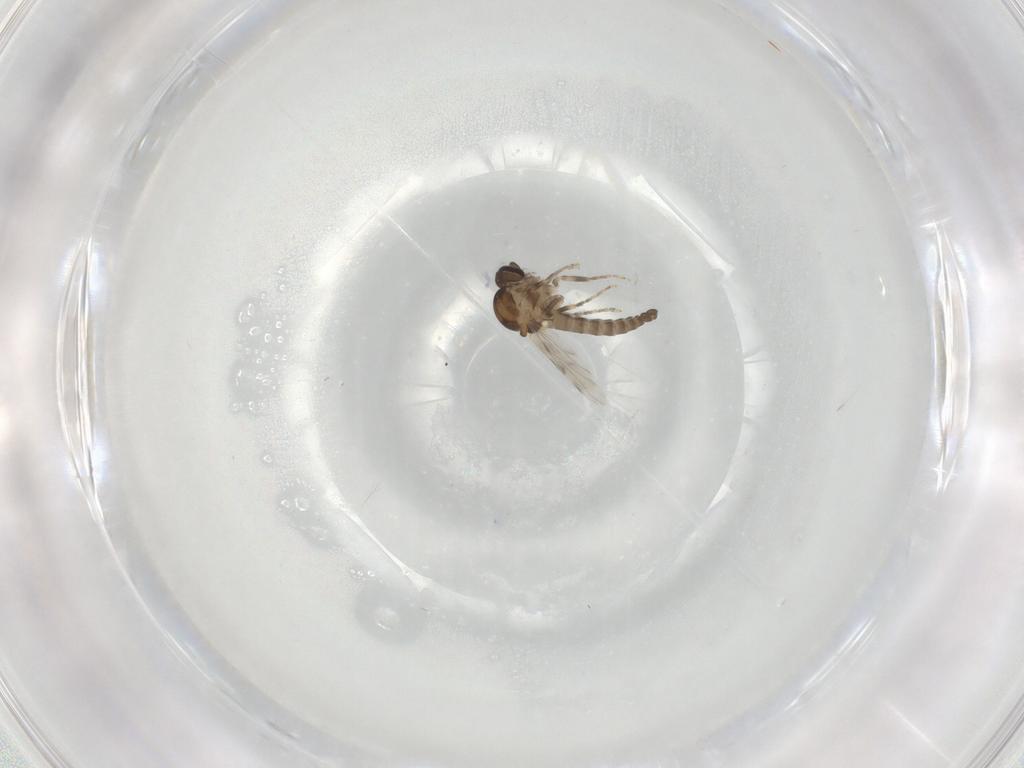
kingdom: Animalia
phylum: Arthropoda
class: Insecta
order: Diptera
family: Ceratopogonidae
